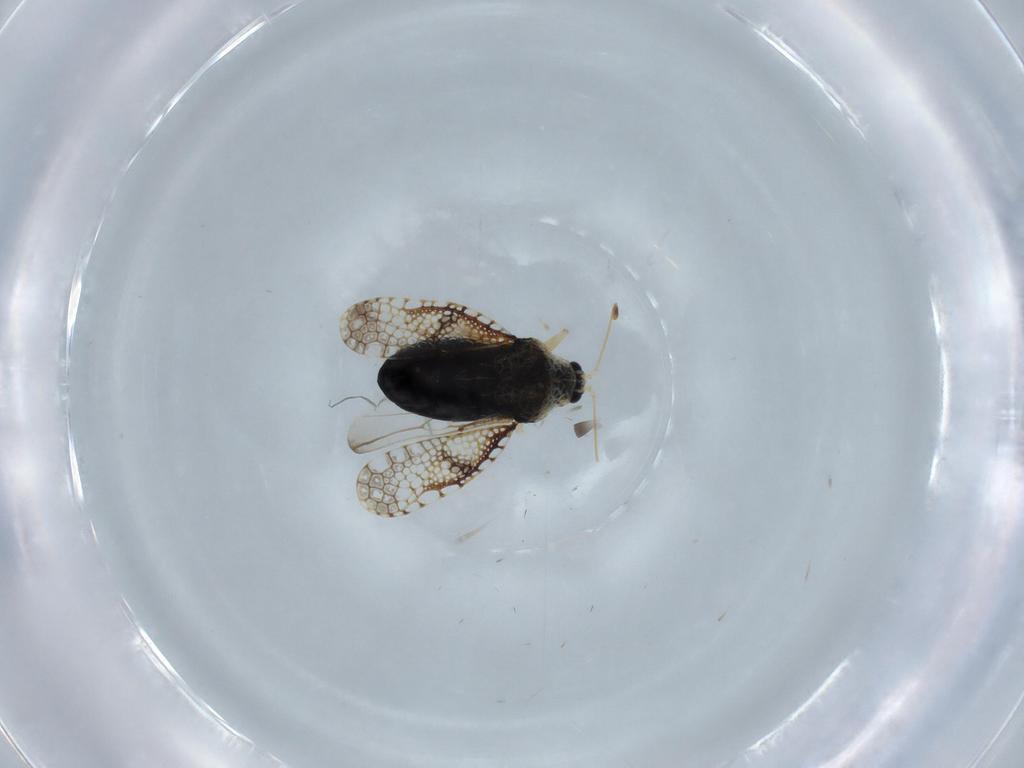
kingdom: Animalia
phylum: Arthropoda
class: Insecta
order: Hemiptera
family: Tingidae
